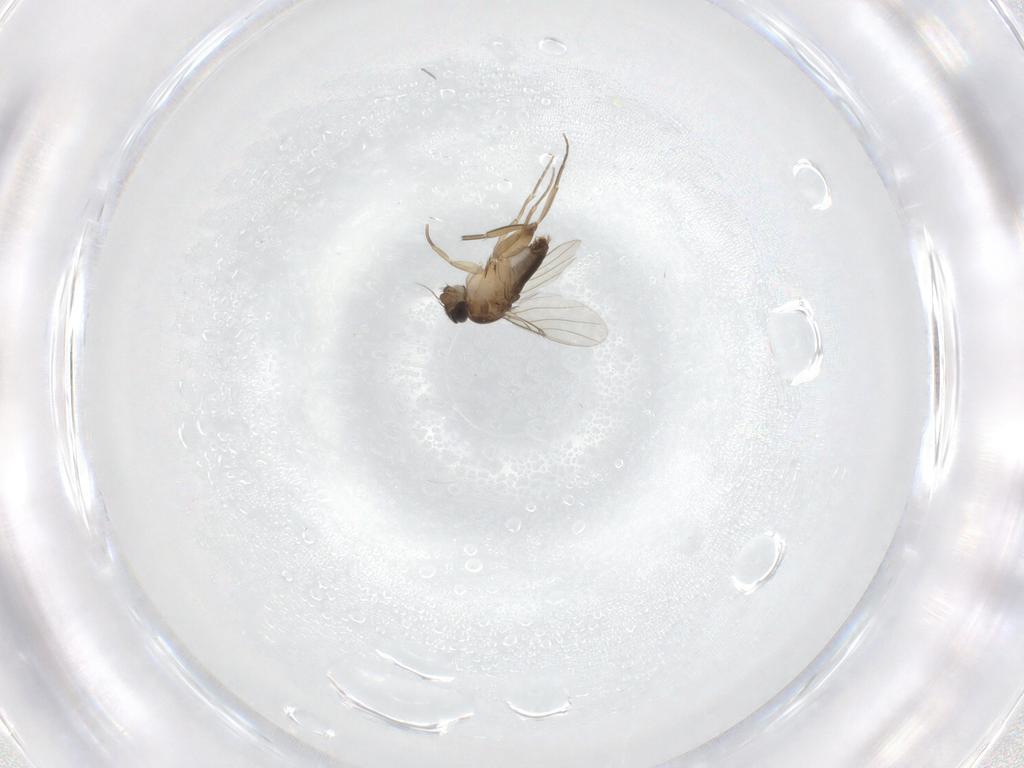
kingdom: Animalia
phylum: Arthropoda
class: Insecta
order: Diptera
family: Phoridae
